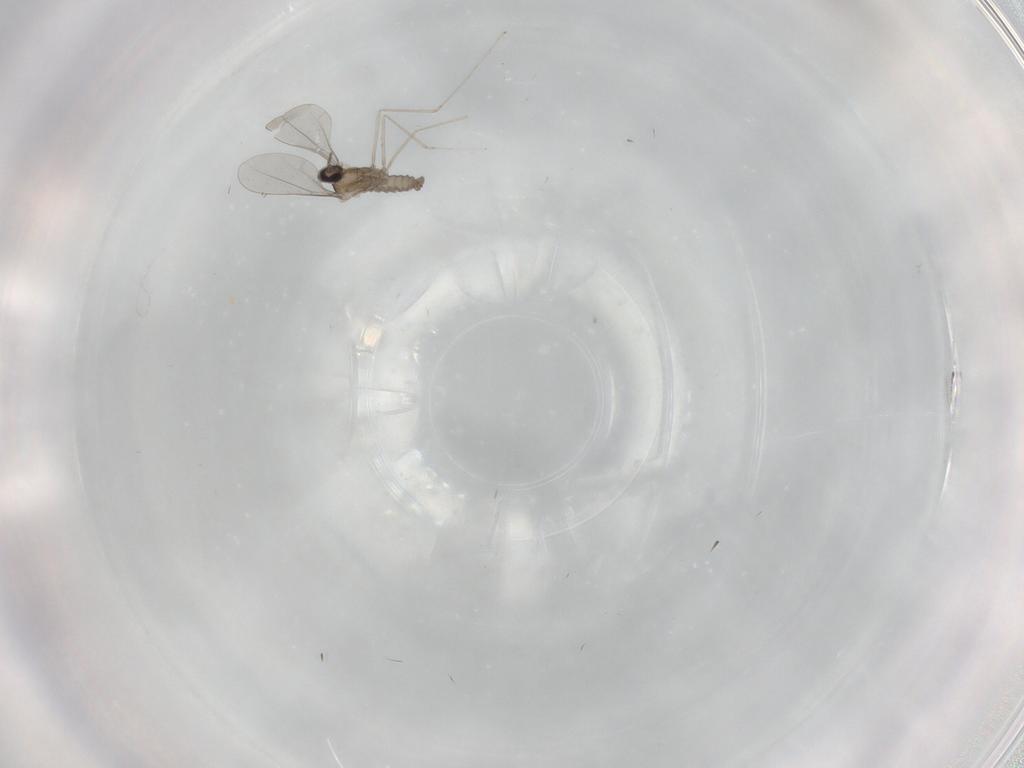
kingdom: Animalia
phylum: Arthropoda
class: Insecta
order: Diptera
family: Cecidomyiidae
